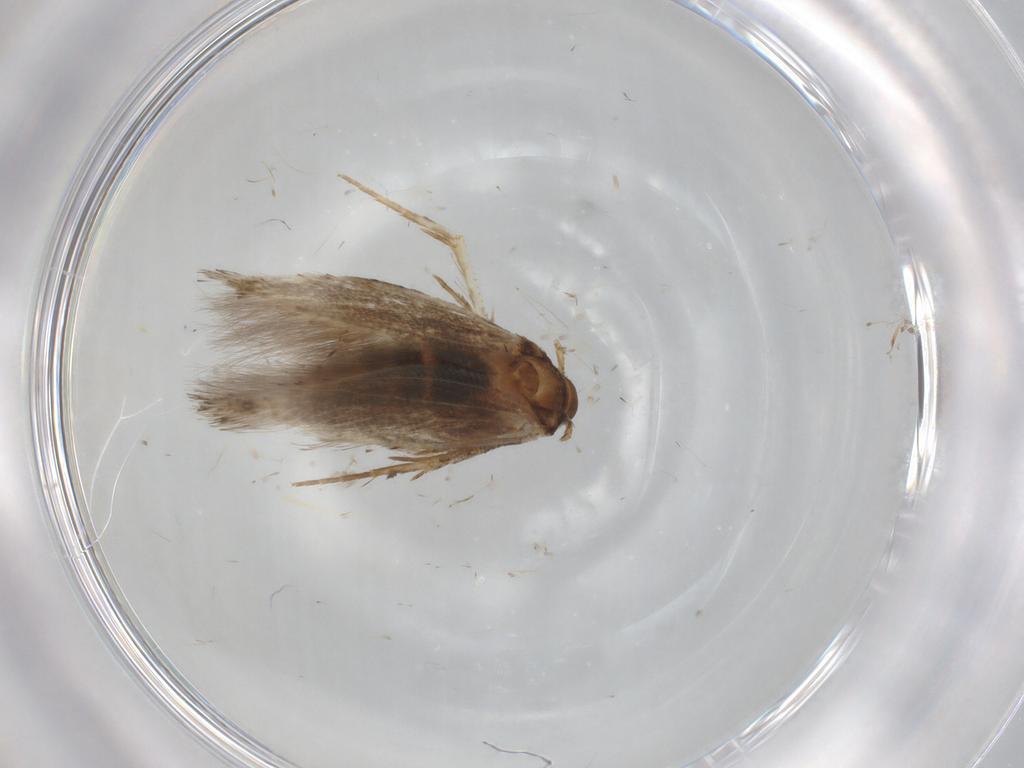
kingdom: Animalia
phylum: Arthropoda
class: Insecta
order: Lepidoptera
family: Cosmopterigidae
